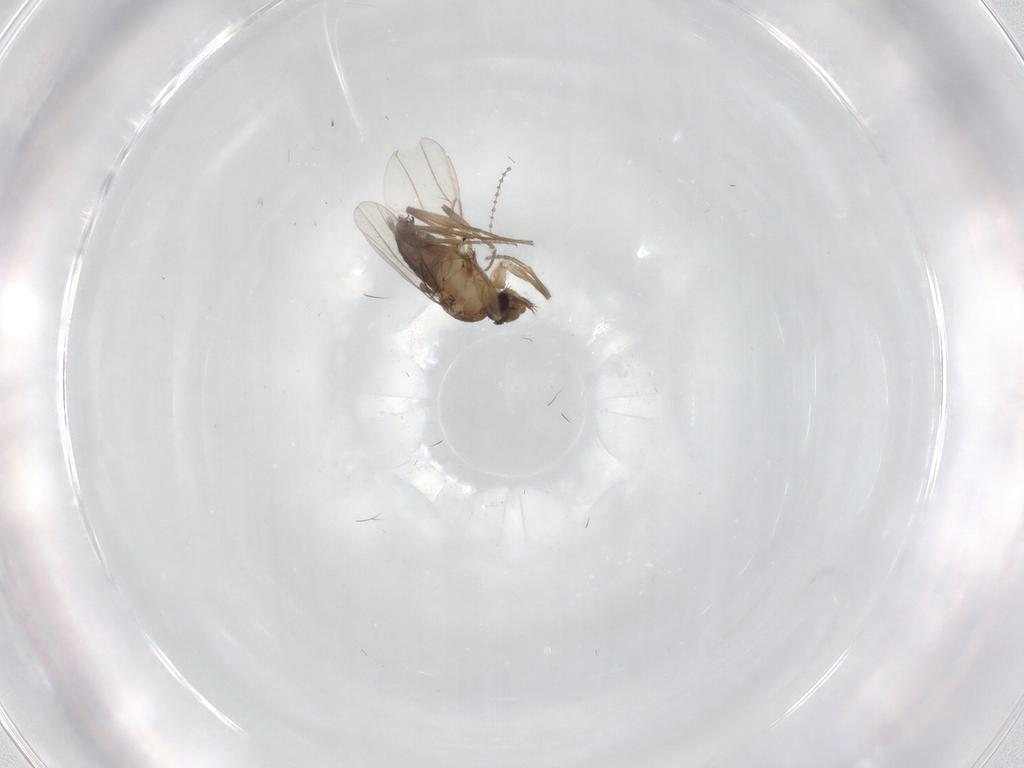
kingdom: Animalia
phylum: Arthropoda
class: Insecta
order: Diptera
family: Phoridae
